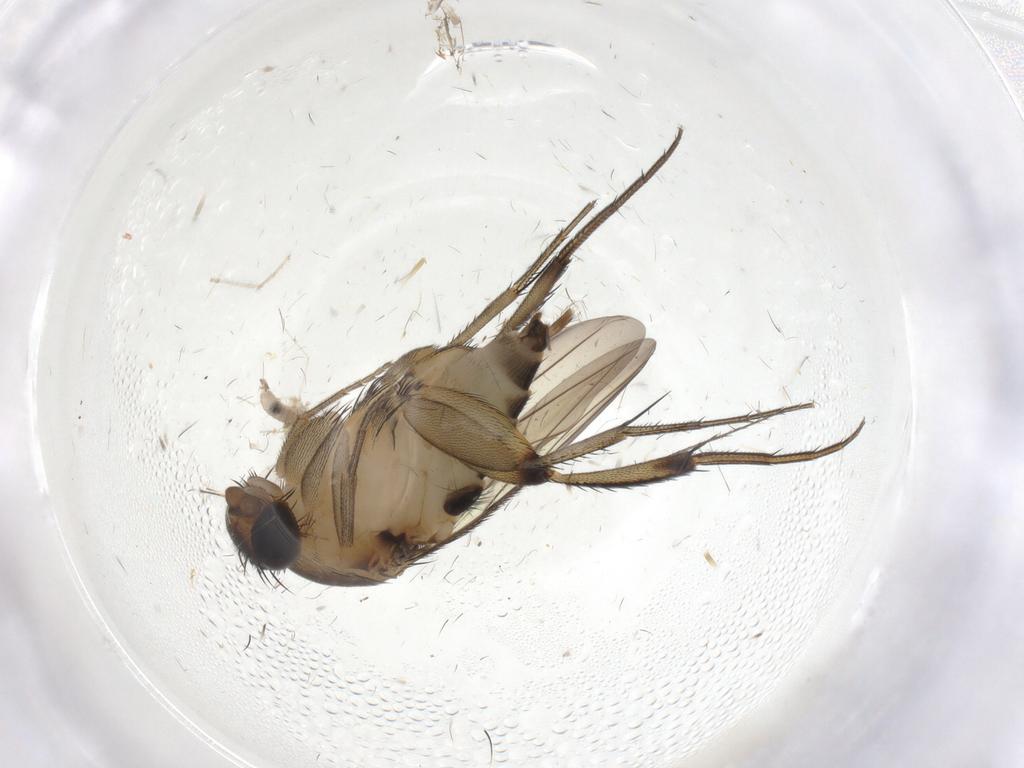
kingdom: Animalia
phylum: Arthropoda
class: Insecta
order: Diptera
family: Phoridae
